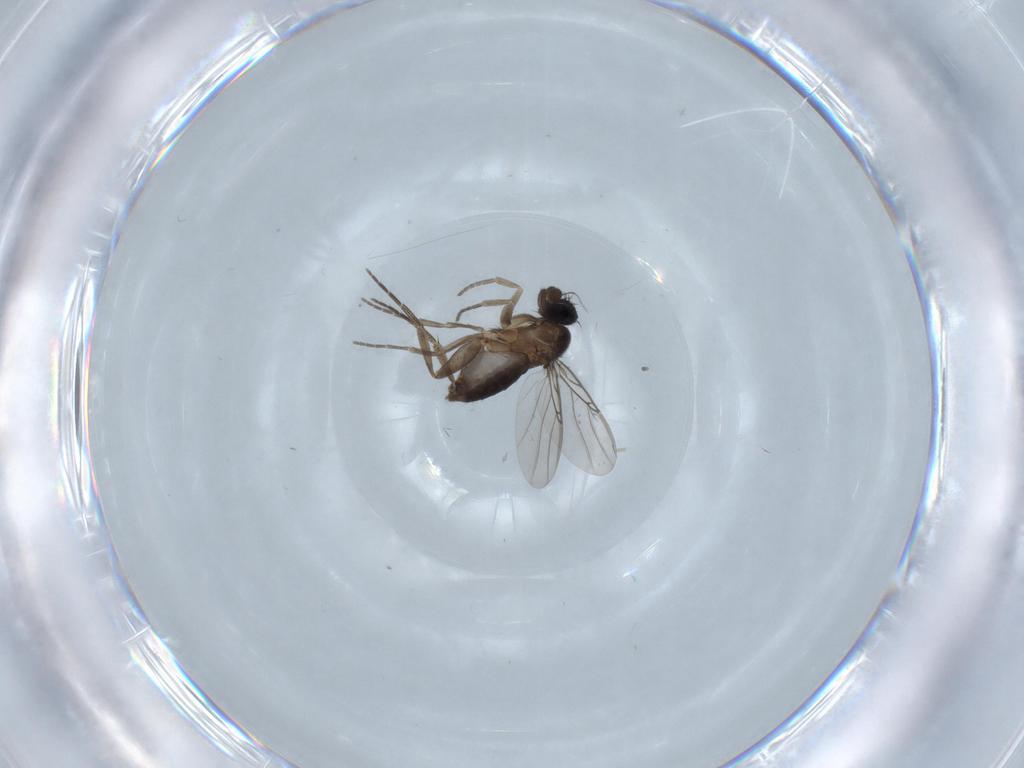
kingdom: Animalia
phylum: Arthropoda
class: Insecta
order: Diptera
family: Phoridae
